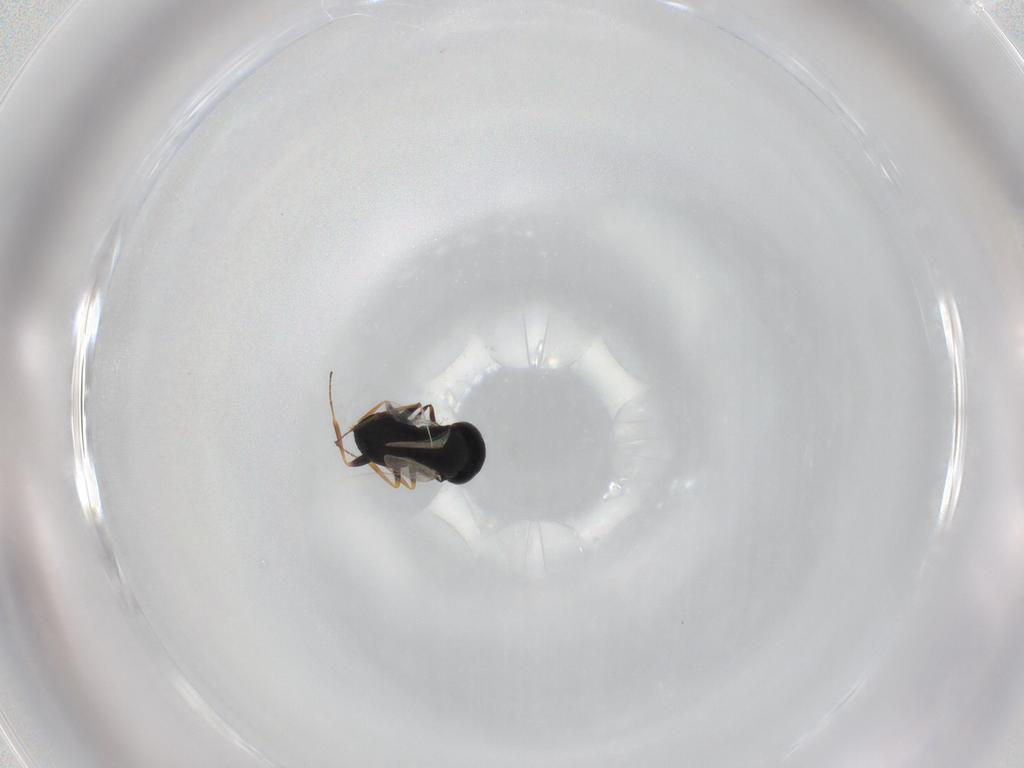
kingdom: Animalia
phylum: Arthropoda
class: Insecta
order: Coleoptera
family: Curculionidae
